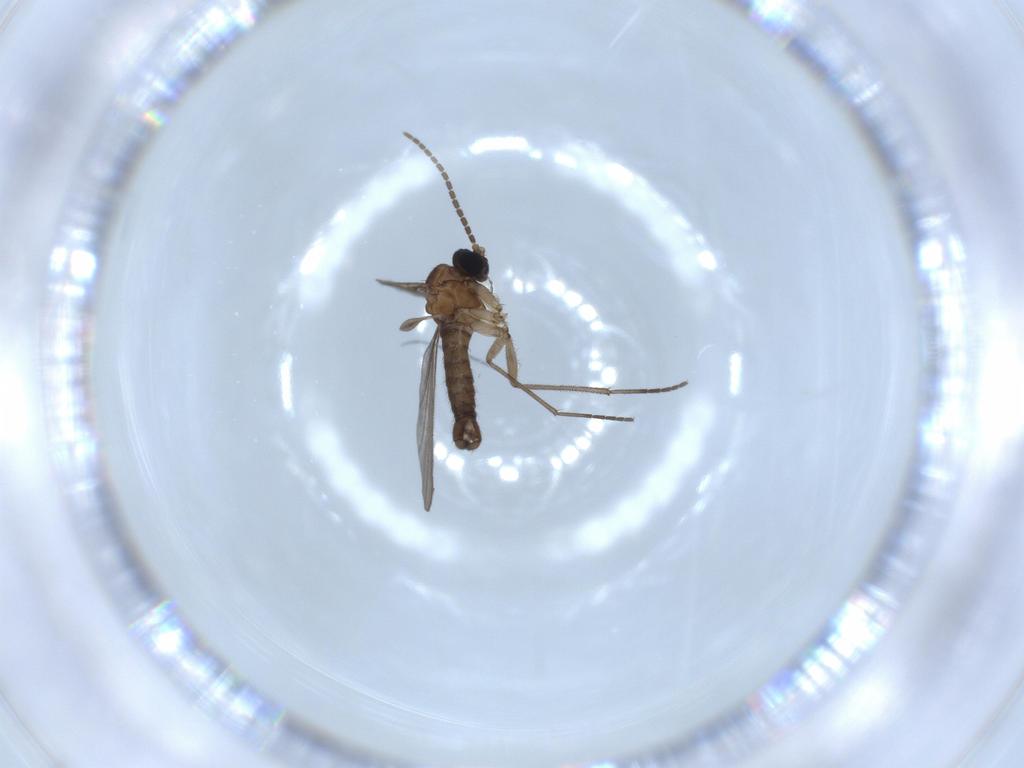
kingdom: Animalia
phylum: Arthropoda
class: Insecta
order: Diptera
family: Sciaridae
